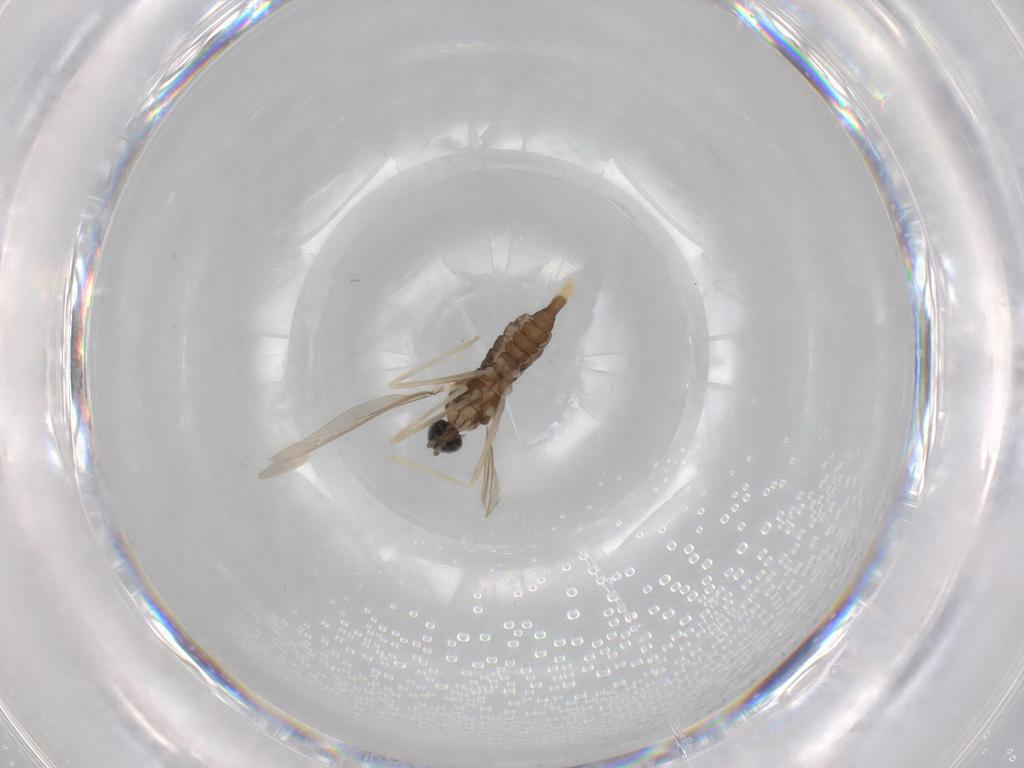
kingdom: Animalia
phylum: Arthropoda
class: Insecta
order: Diptera
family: Cecidomyiidae
